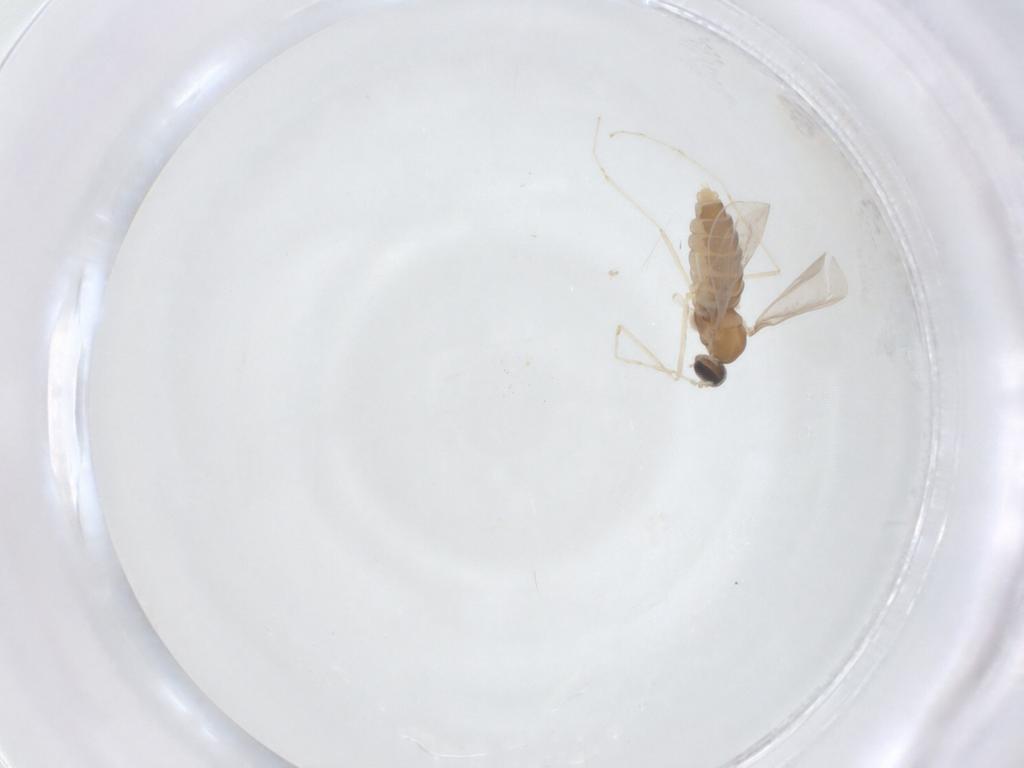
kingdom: Animalia
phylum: Arthropoda
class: Insecta
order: Diptera
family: Cecidomyiidae
